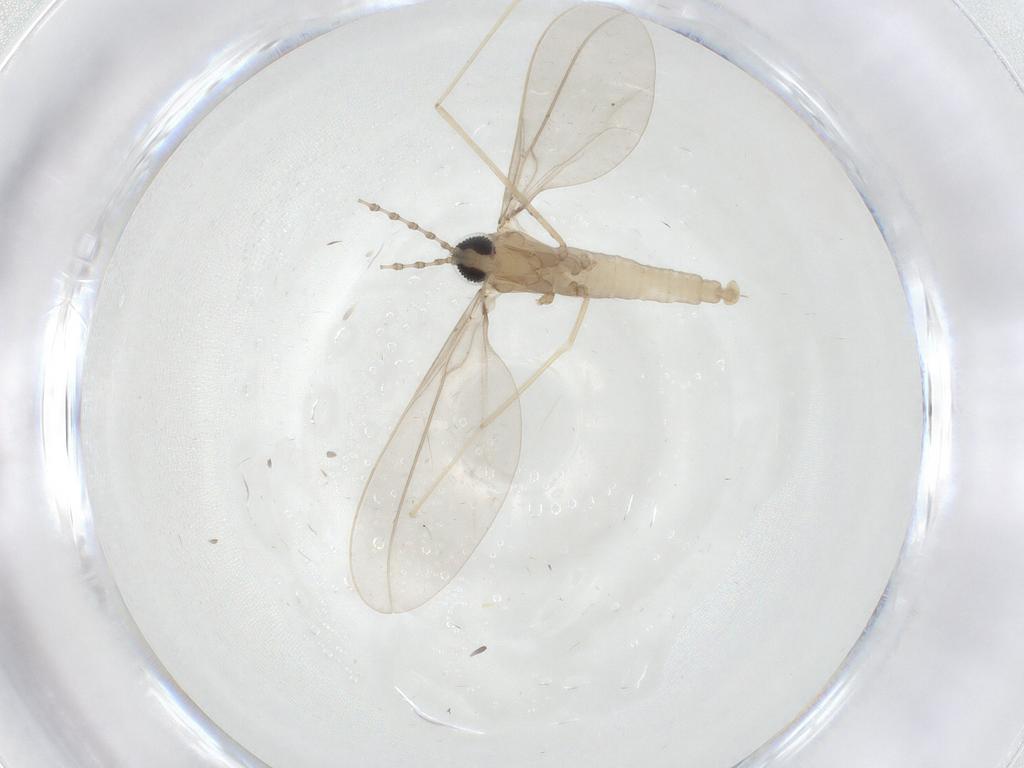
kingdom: Animalia
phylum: Arthropoda
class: Insecta
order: Diptera
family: Cecidomyiidae
